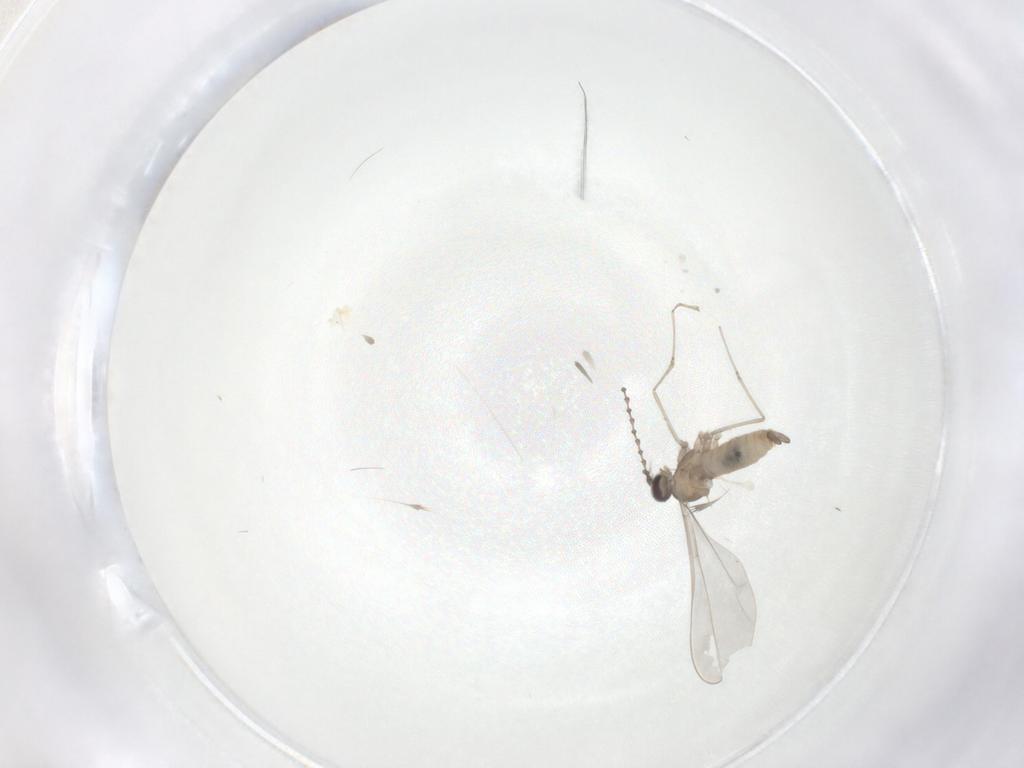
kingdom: Animalia
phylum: Arthropoda
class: Insecta
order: Diptera
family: Cecidomyiidae
